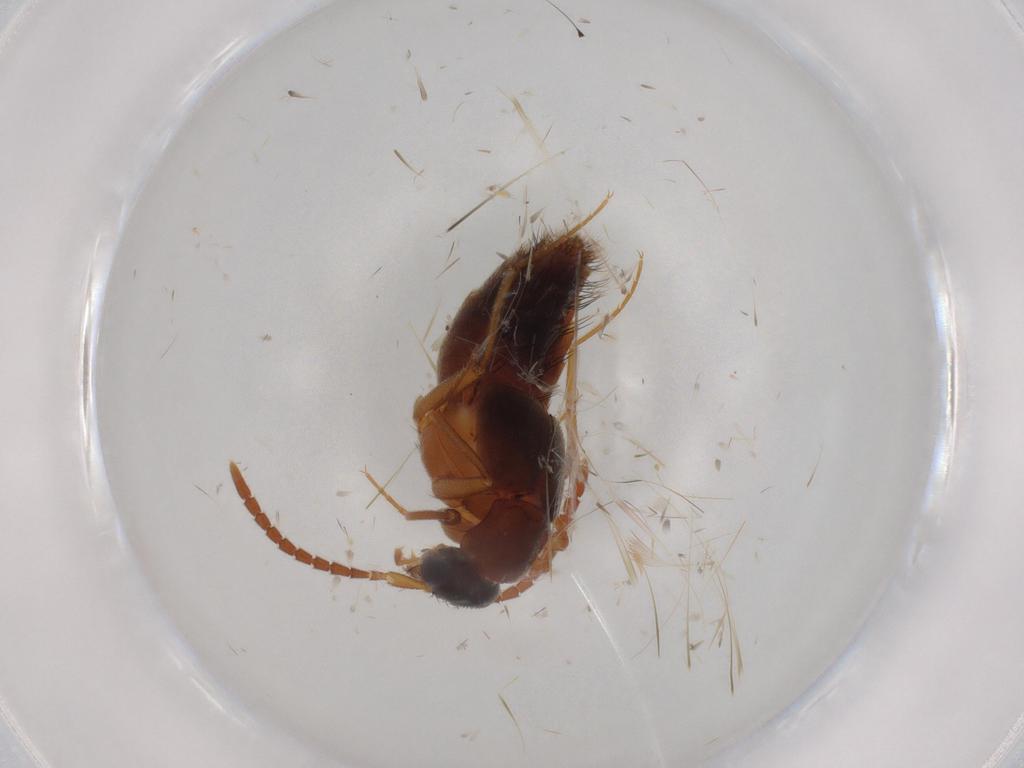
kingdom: Animalia
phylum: Arthropoda
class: Insecta
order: Coleoptera
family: Staphylinidae
